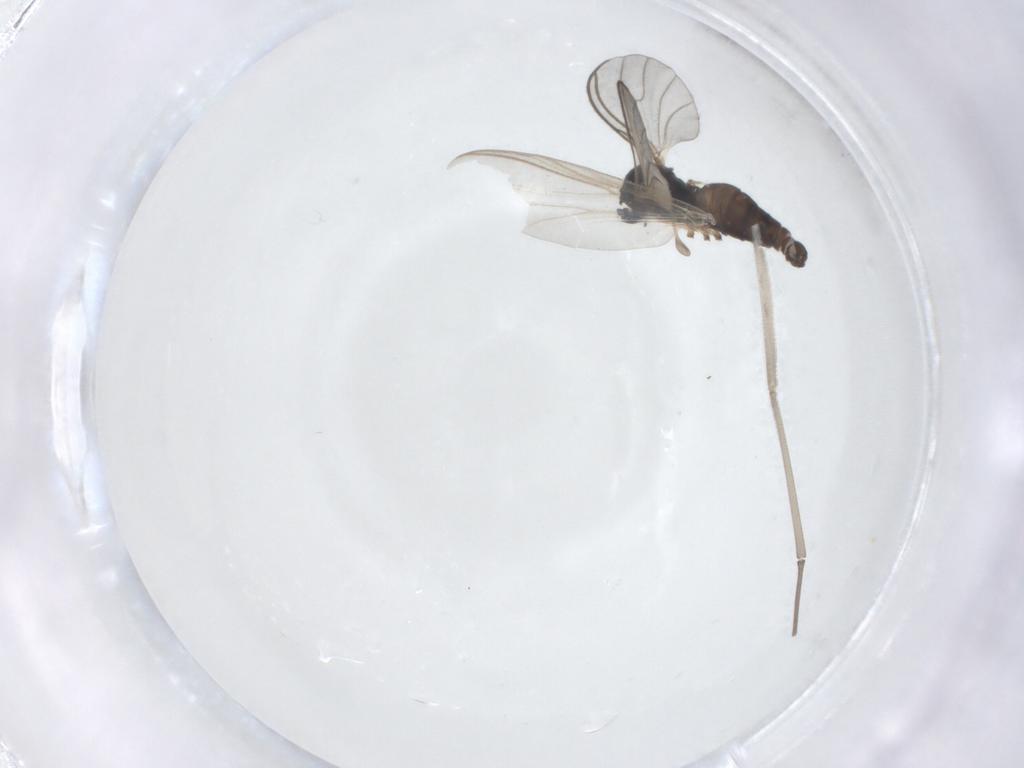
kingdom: Animalia
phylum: Arthropoda
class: Insecta
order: Diptera
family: Cecidomyiidae
